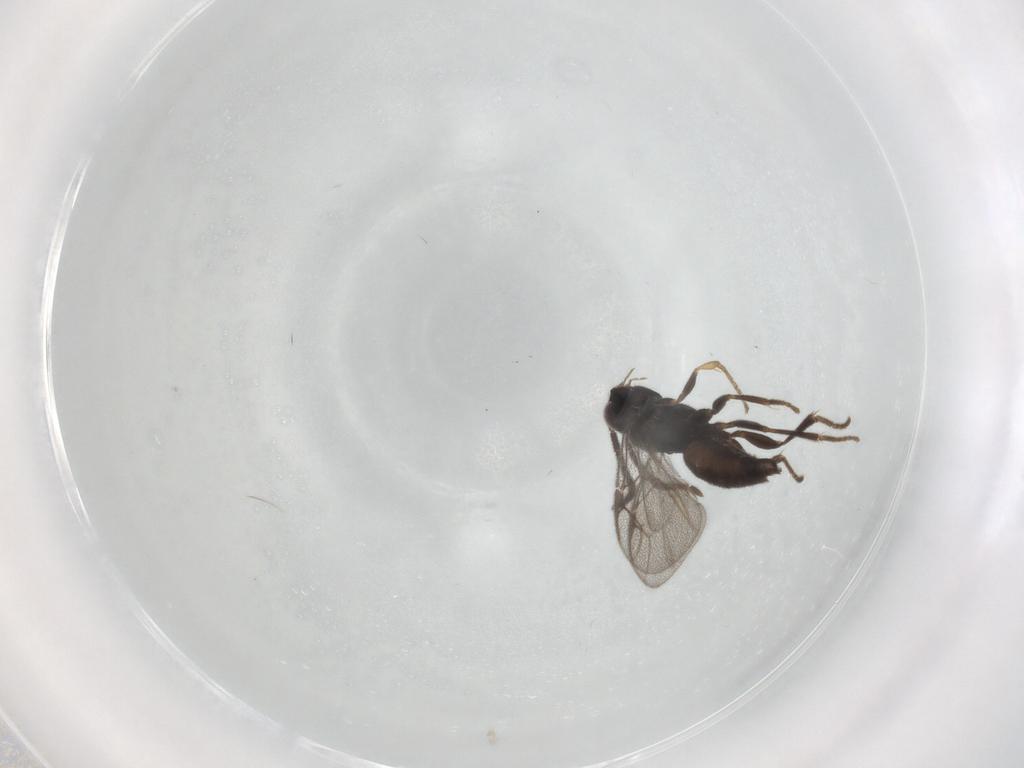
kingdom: Animalia
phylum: Arthropoda
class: Insecta
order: Hymenoptera
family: Dryinidae
